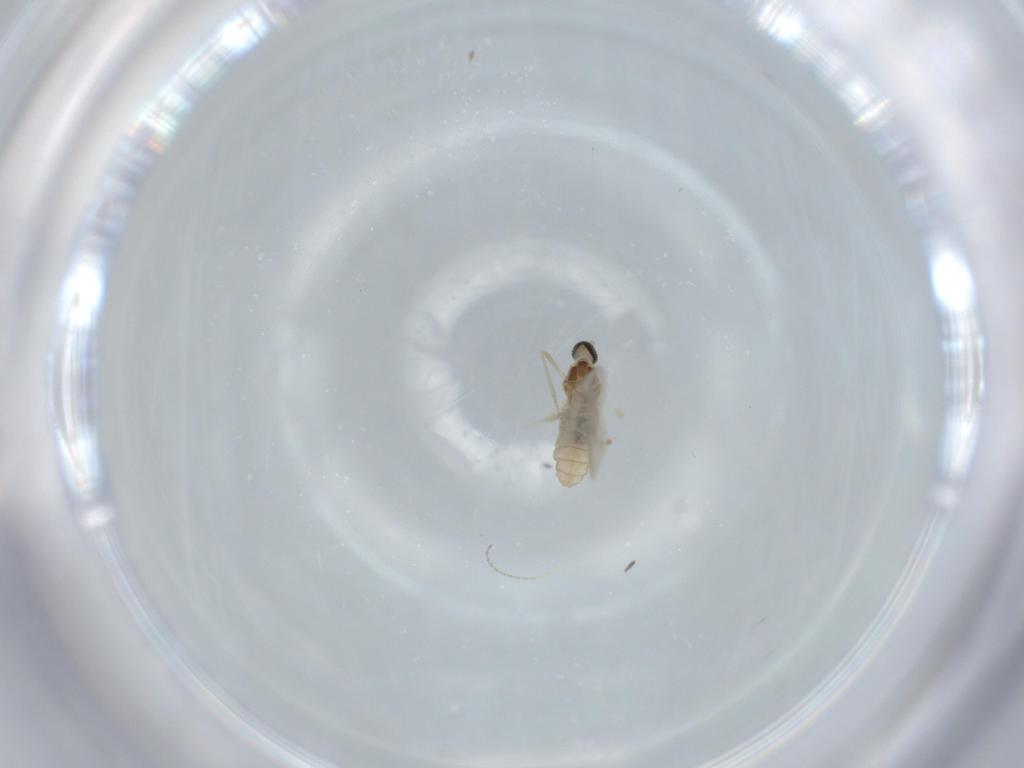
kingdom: Animalia
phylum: Arthropoda
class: Insecta
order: Diptera
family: Cecidomyiidae
